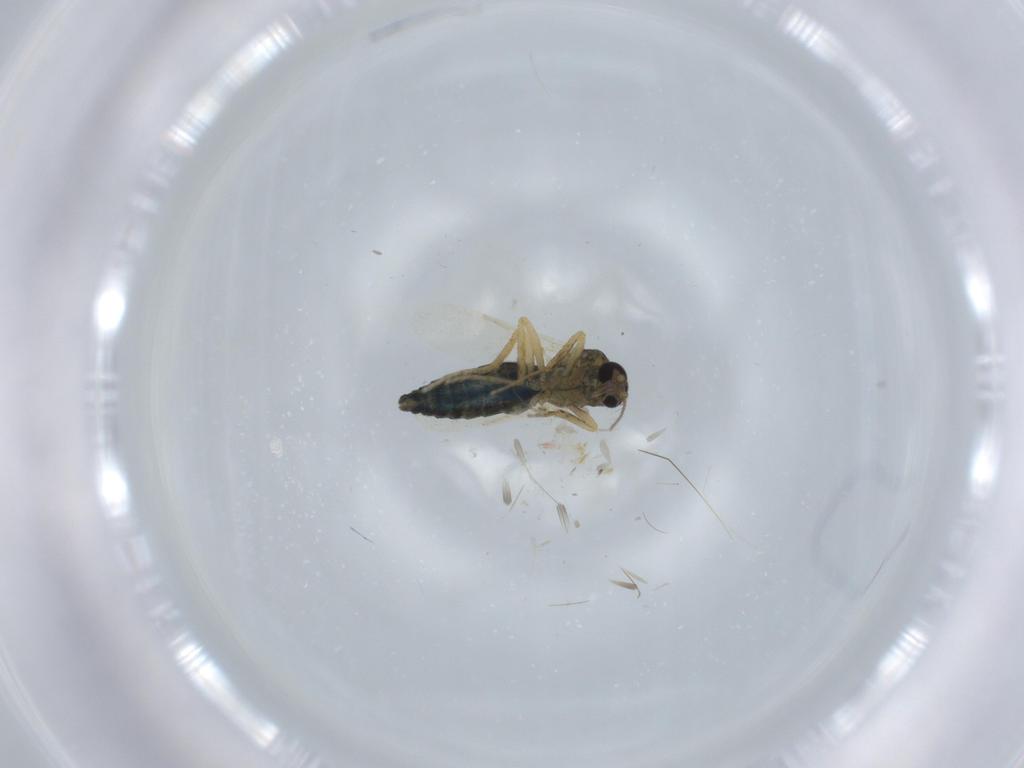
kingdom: Animalia
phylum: Arthropoda
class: Insecta
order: Diptera
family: Ceratopogonidae
